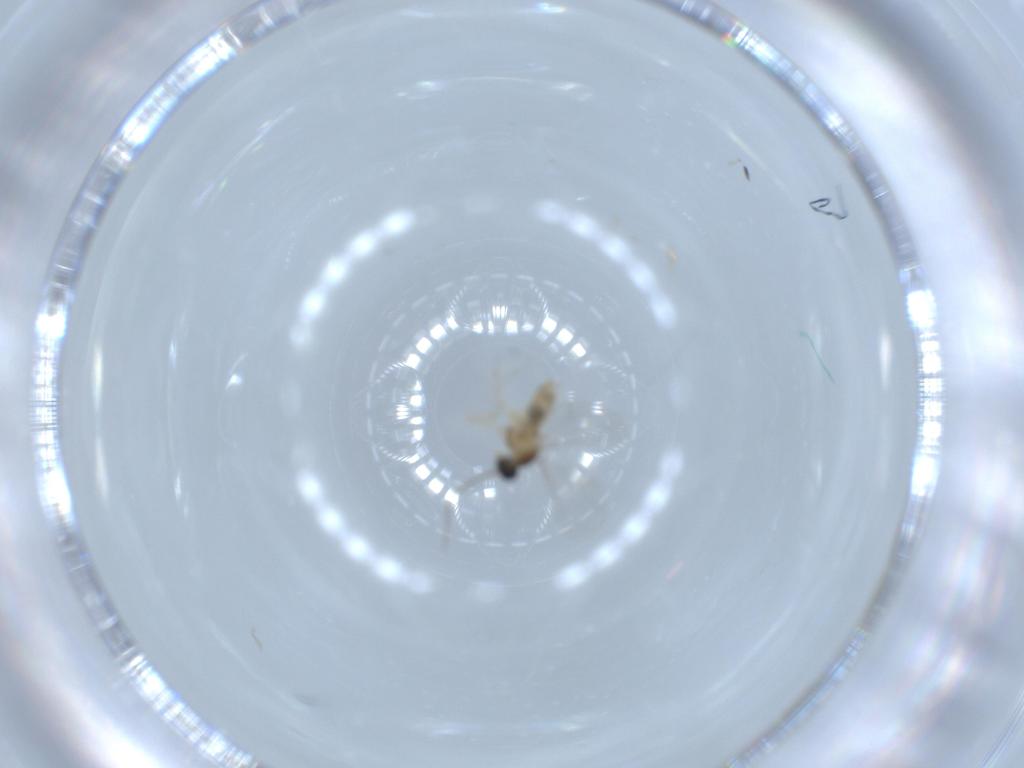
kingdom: Animalia
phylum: Arthropoda
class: Insecta
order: Diptera
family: Cecidomyiidae
